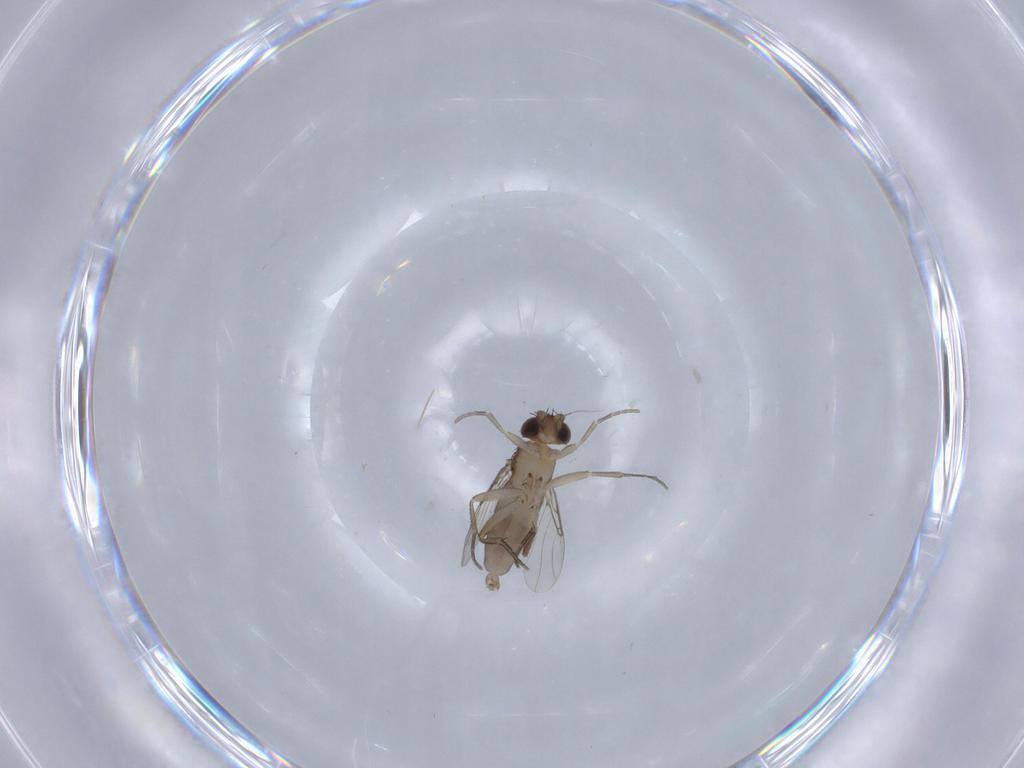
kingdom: Animalia
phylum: Arthropoda
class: Insecta
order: Diptera
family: Phoridae
